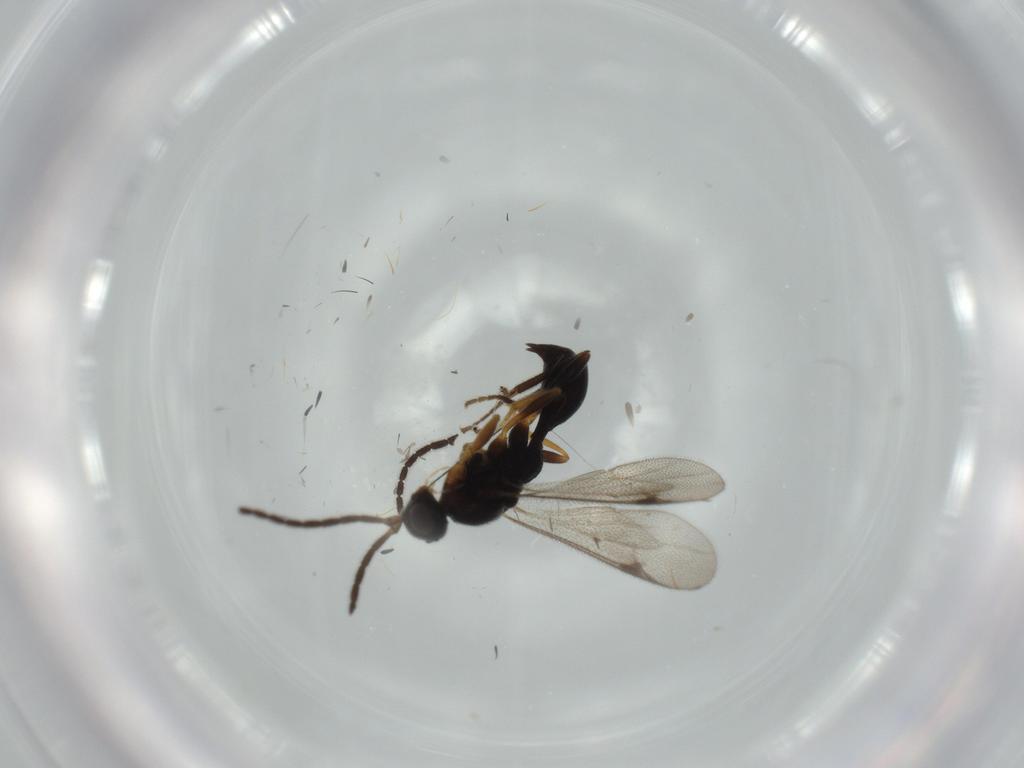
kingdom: Animalia
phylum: Arthropoda
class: Insecta
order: Hymenoptera
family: Proctotrupidae
